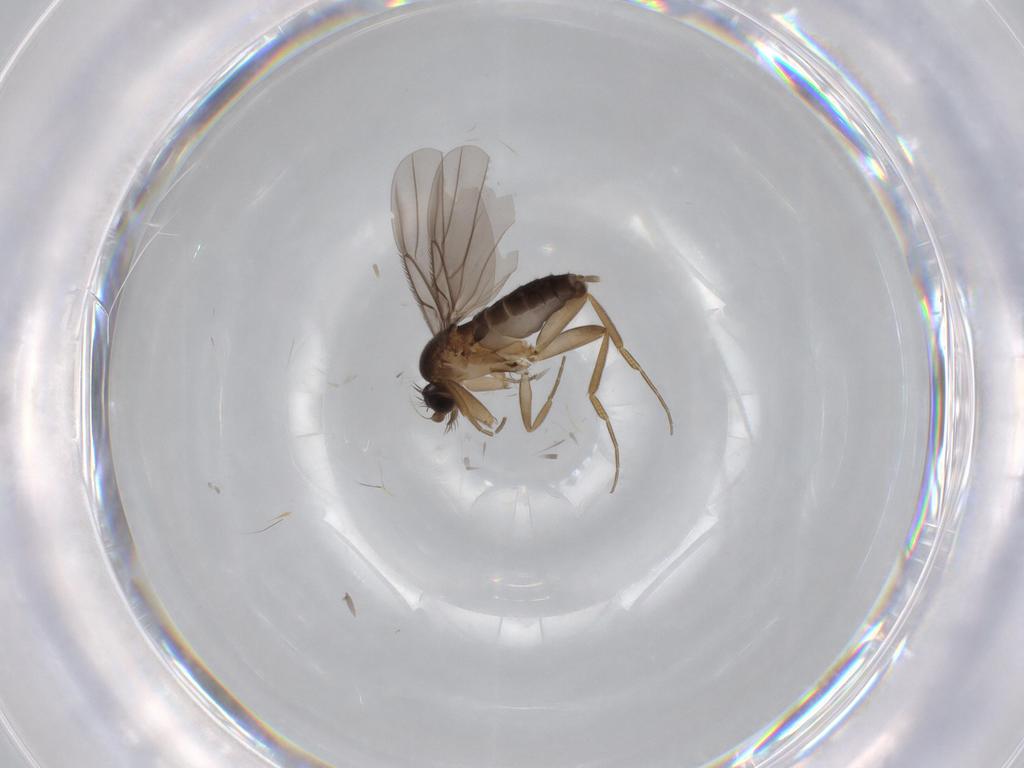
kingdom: Animalia
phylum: Arthropoda
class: Insecta
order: Diptera
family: Phoridae
